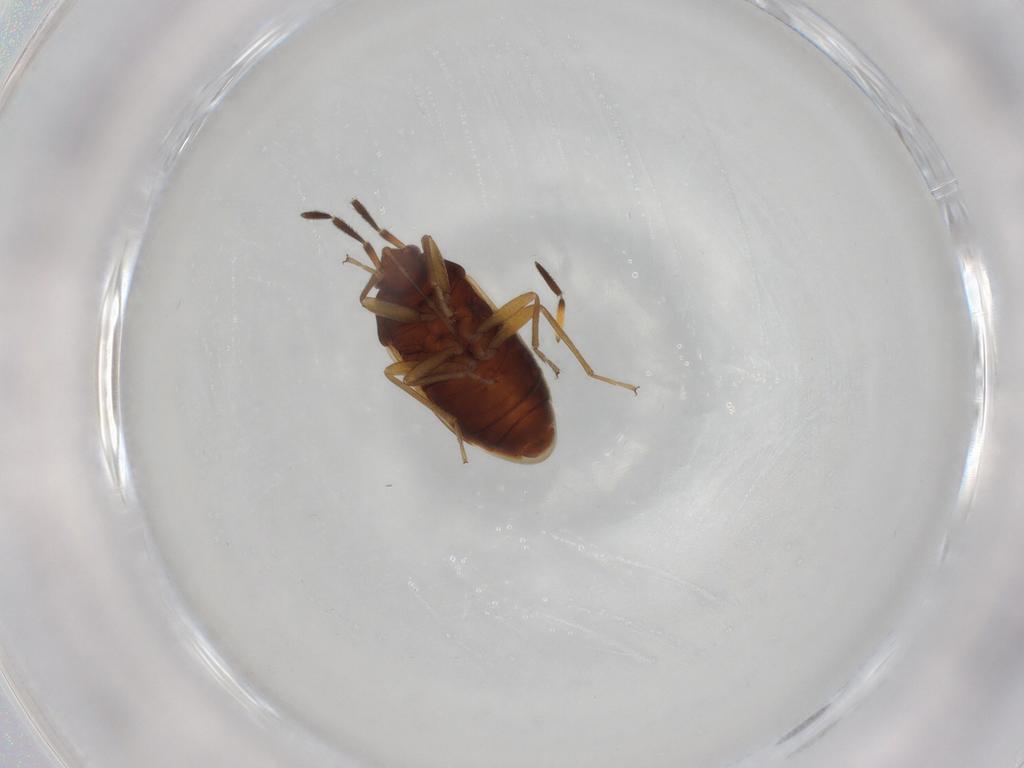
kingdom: Animalia
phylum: Arthropoda
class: Insecta
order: Hemiptera
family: Rhyparochromidae
